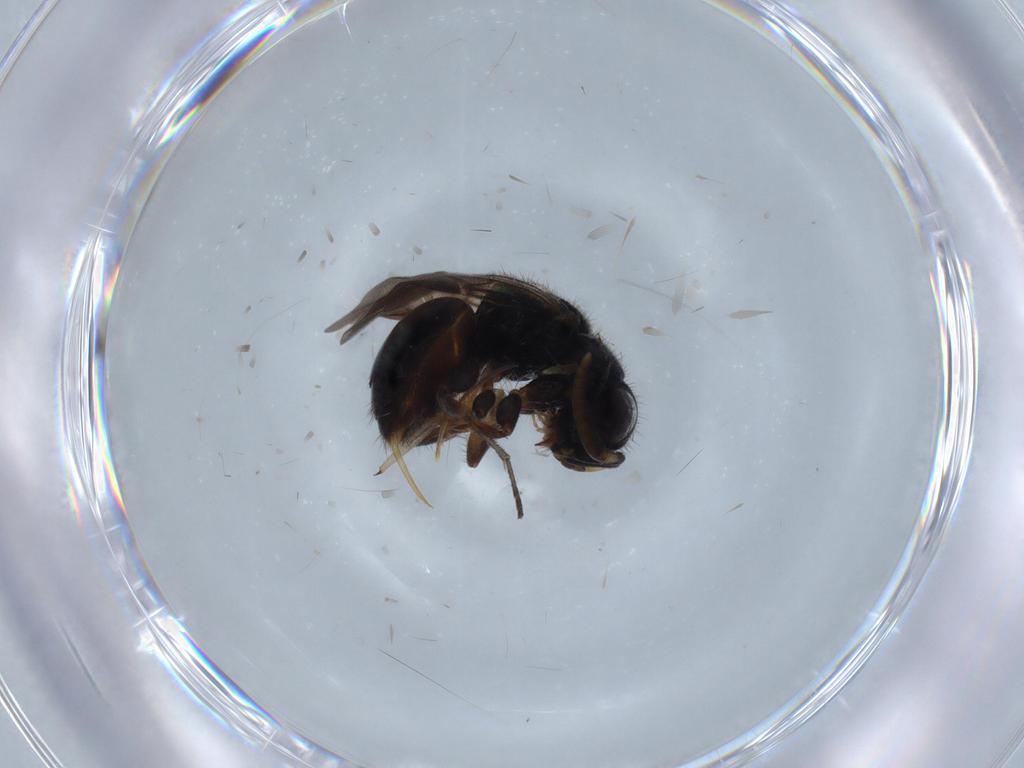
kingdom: Animalia
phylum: Arthropoda
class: Insecta
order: Hymenoptera
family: Chrysididae
